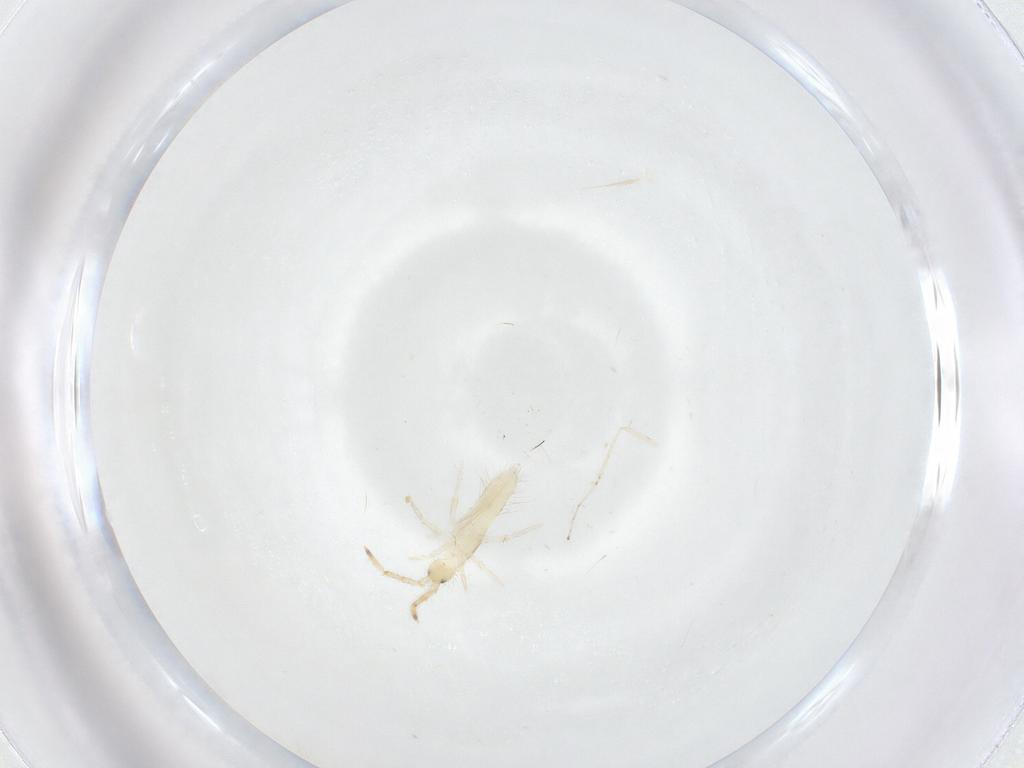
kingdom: Animalia
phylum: Arthropoda
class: Collembola
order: Entomobryomorpha
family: Entomobryidae
